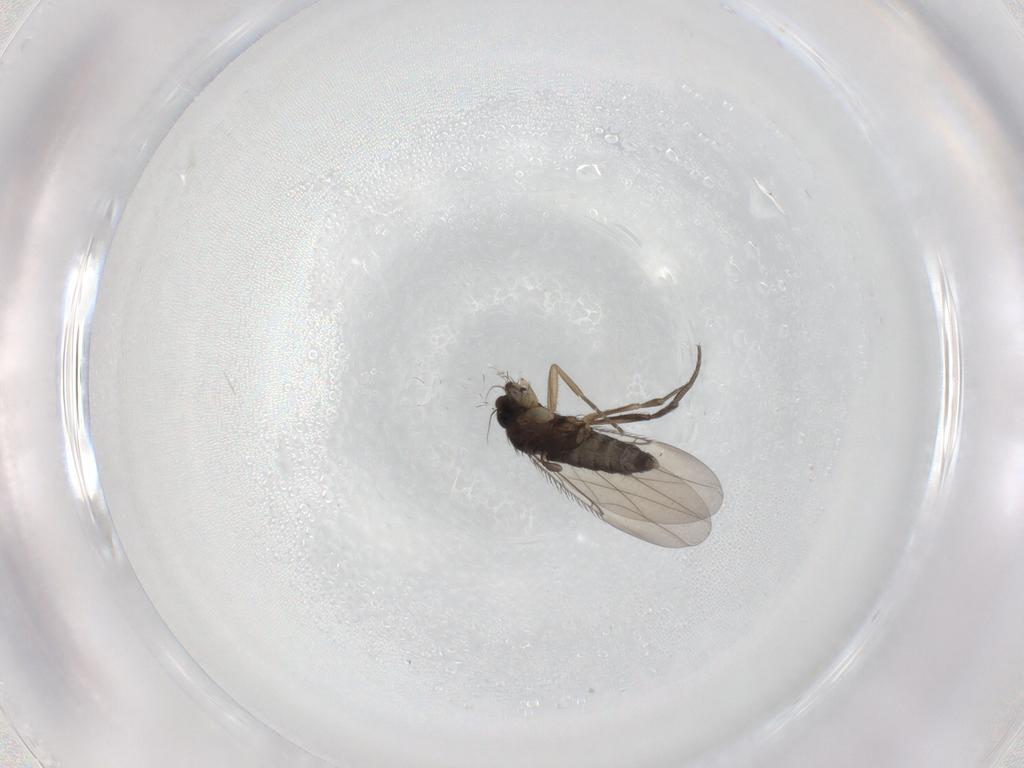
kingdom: Animalia
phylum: Arthropoda
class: Insecta
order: Diptera
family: Phoridae
